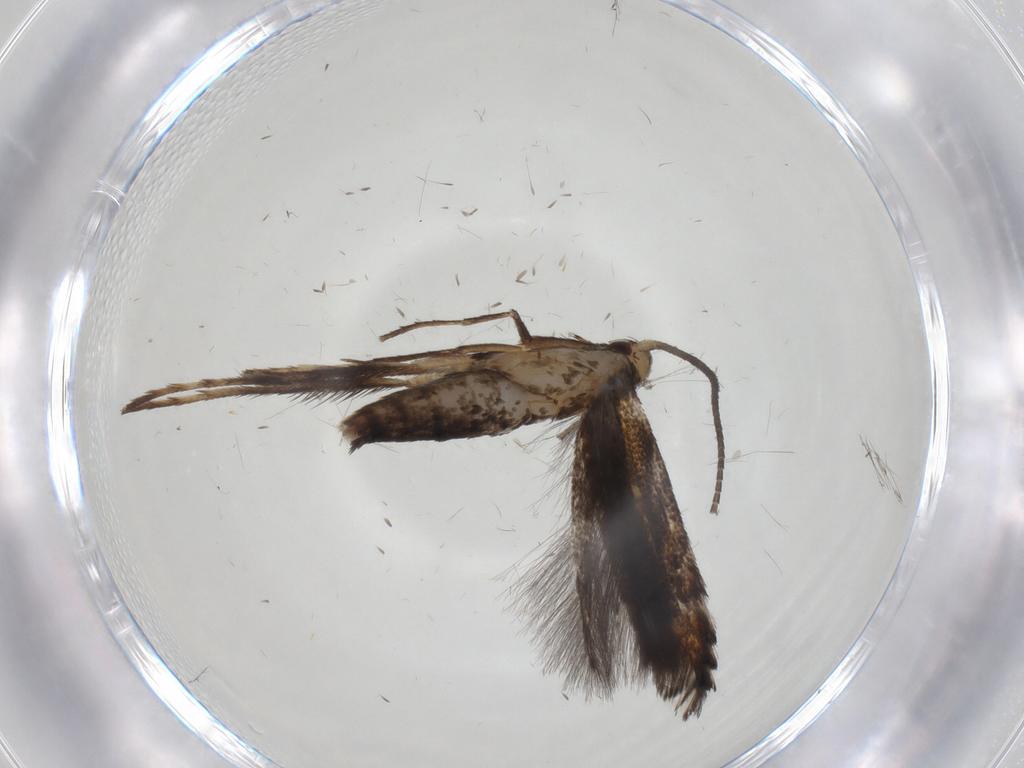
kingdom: Animalia
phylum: Arthropoda
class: Insecta
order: Lepidoptera
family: Gracillariidae
